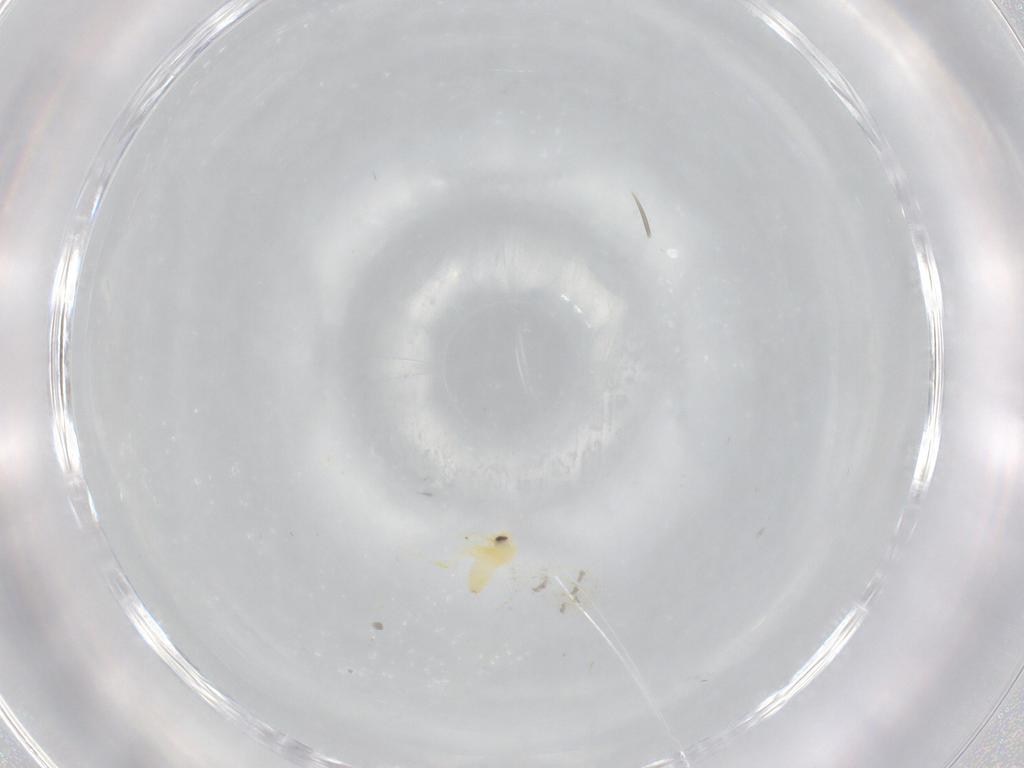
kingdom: Animalia
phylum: Arthropoda
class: Insecta
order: Hemiptera
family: Aleyrodidae
